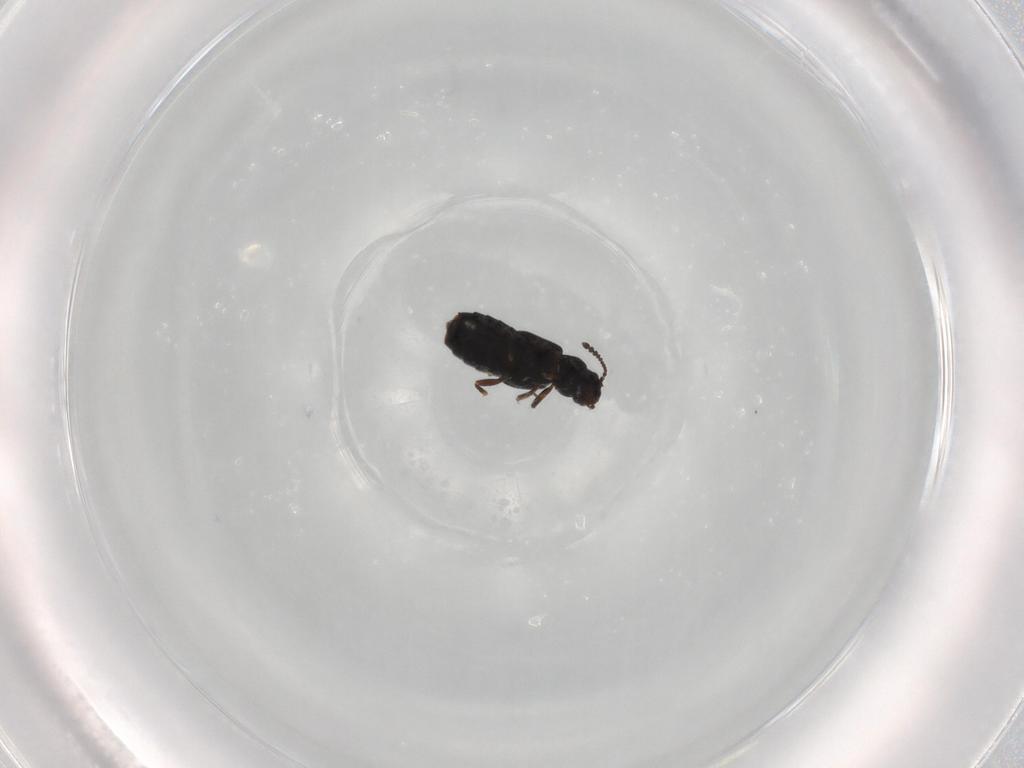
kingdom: Animalia
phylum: Arthropoda
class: Insecta
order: Coleoptera
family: Staphylinidae
